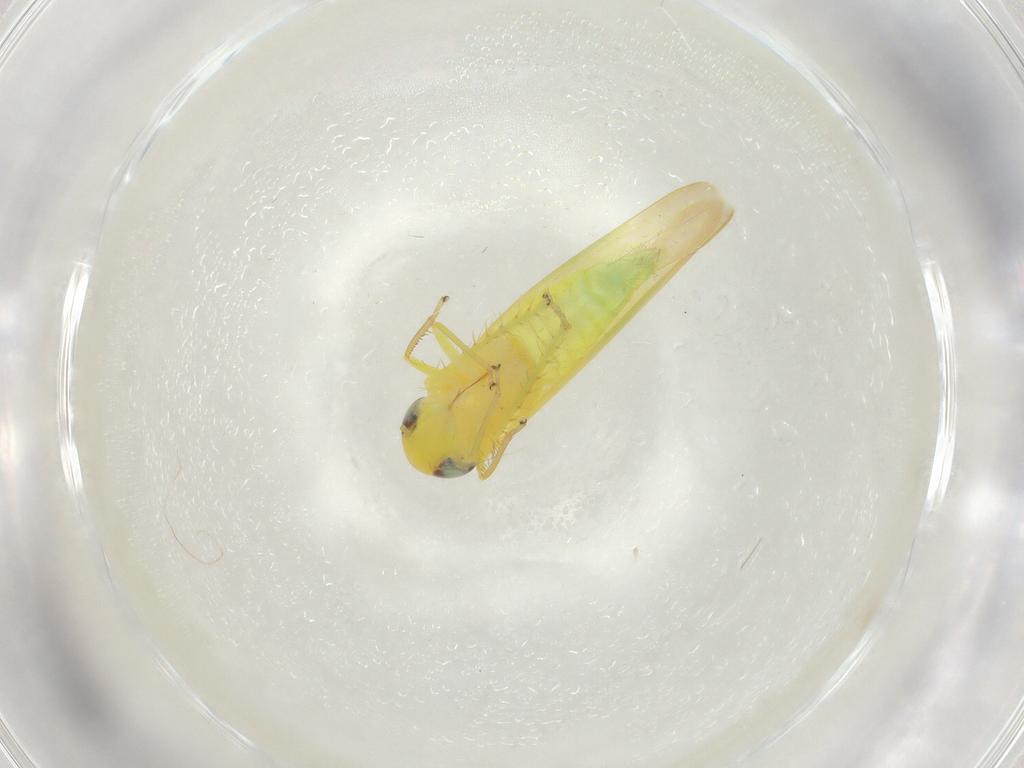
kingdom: Animalia
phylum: Arthropoda
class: Insecta
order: Hemiptera
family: Cicadellidae
